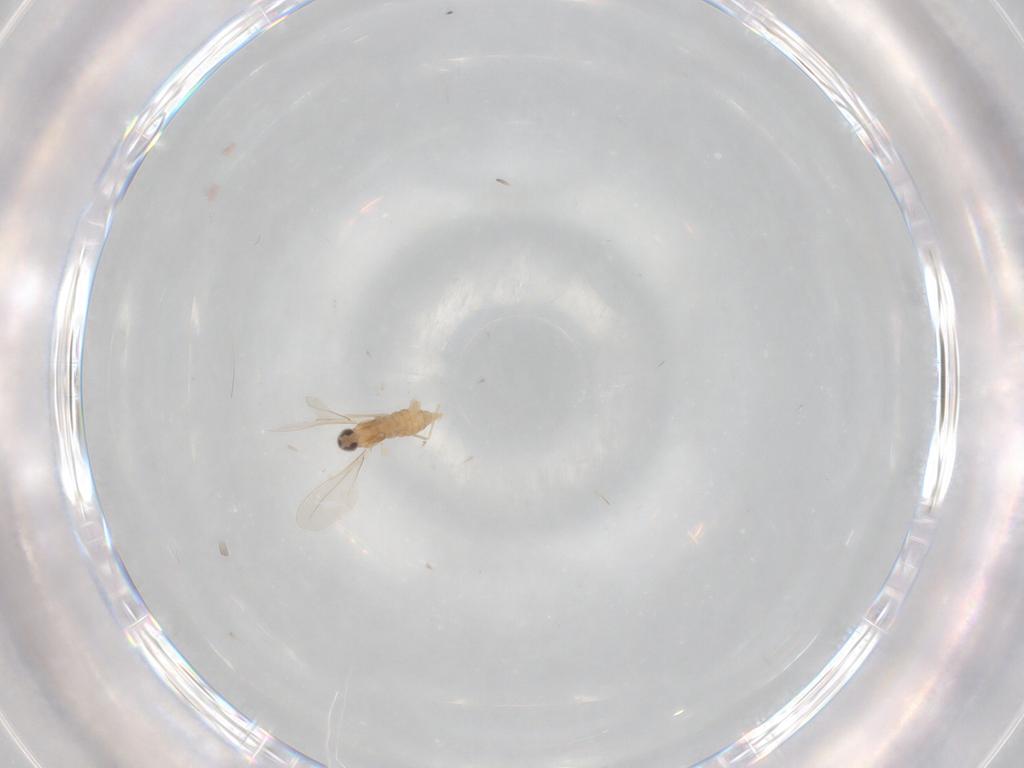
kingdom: Animalia
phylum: Arthropoda
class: Insecta
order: Diptera
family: Cecidomyiidae
